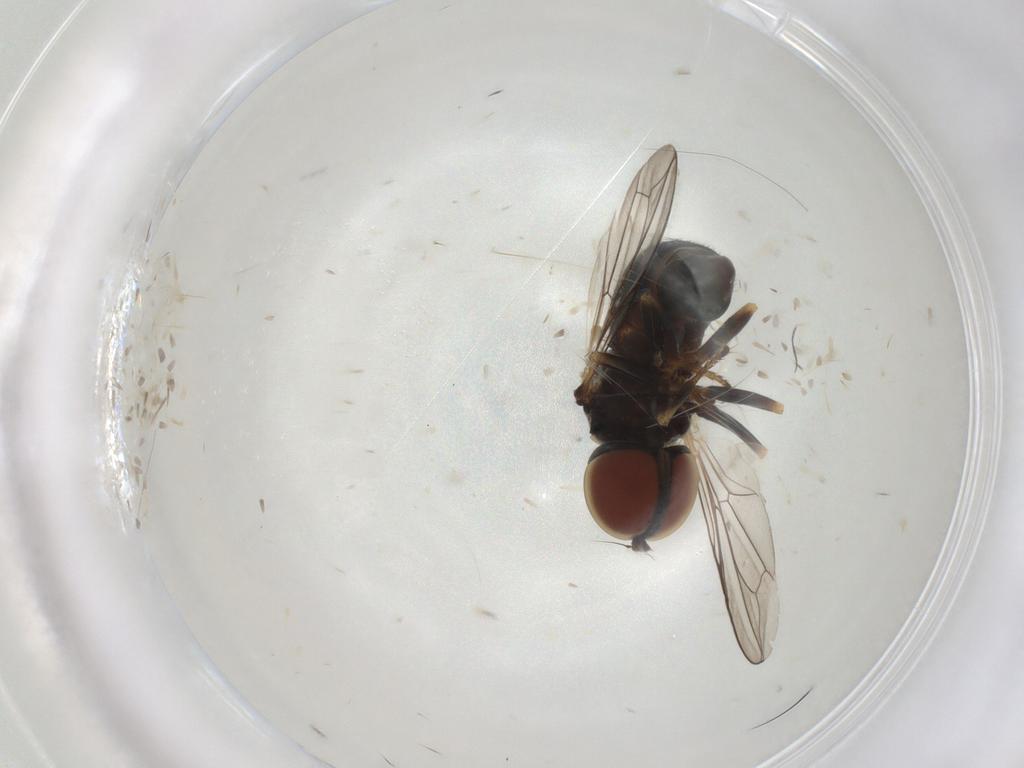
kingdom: Animalia
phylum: Arthropoda
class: Insecta
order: Diptera
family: Pipunculidae
